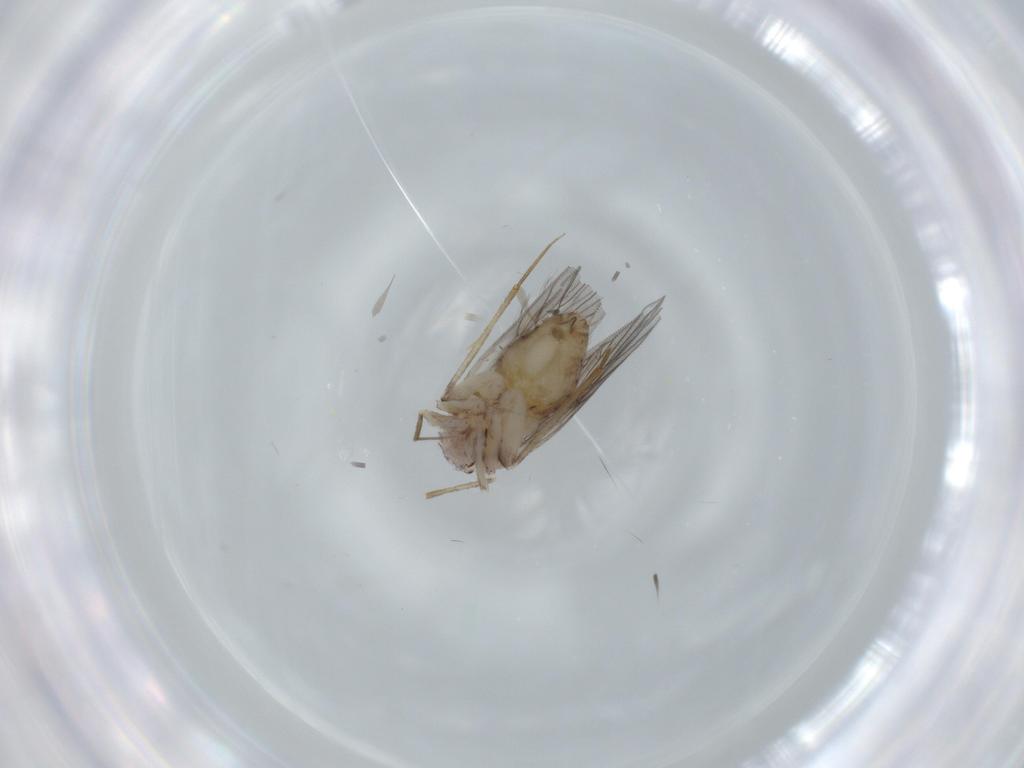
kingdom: Animalia
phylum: Arthropoda
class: Insecta
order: Psocodea
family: Lepidopsocidae
